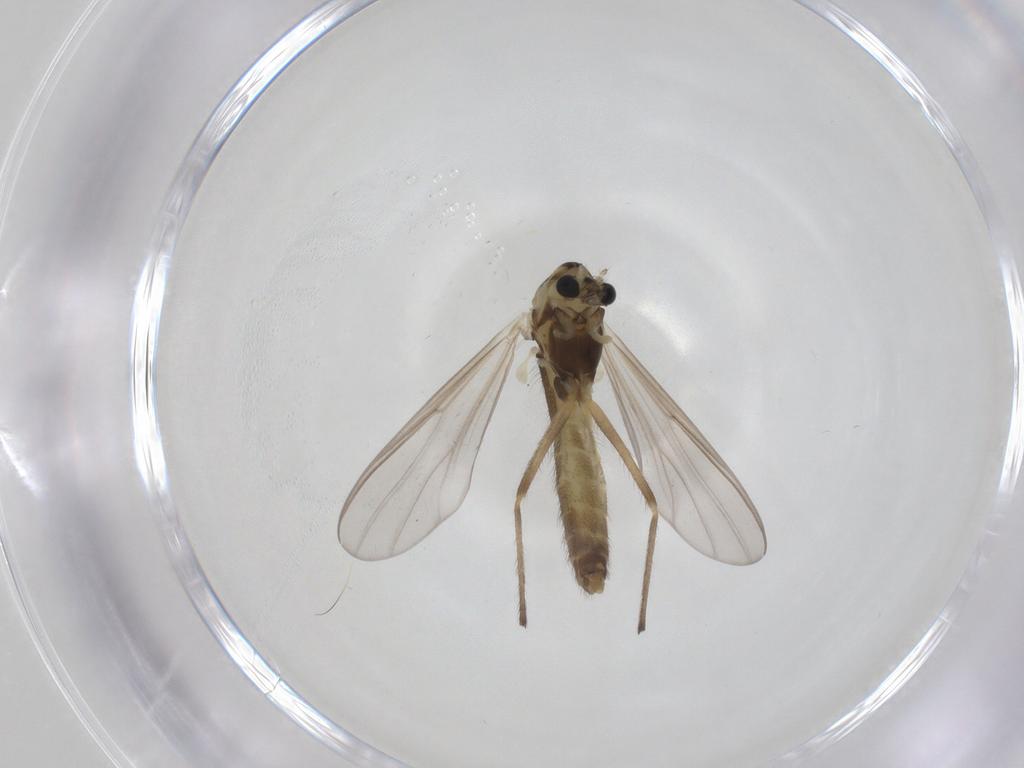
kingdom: Animalia
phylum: Arthropoda
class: Insecta
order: Diptera
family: Chironomidae
